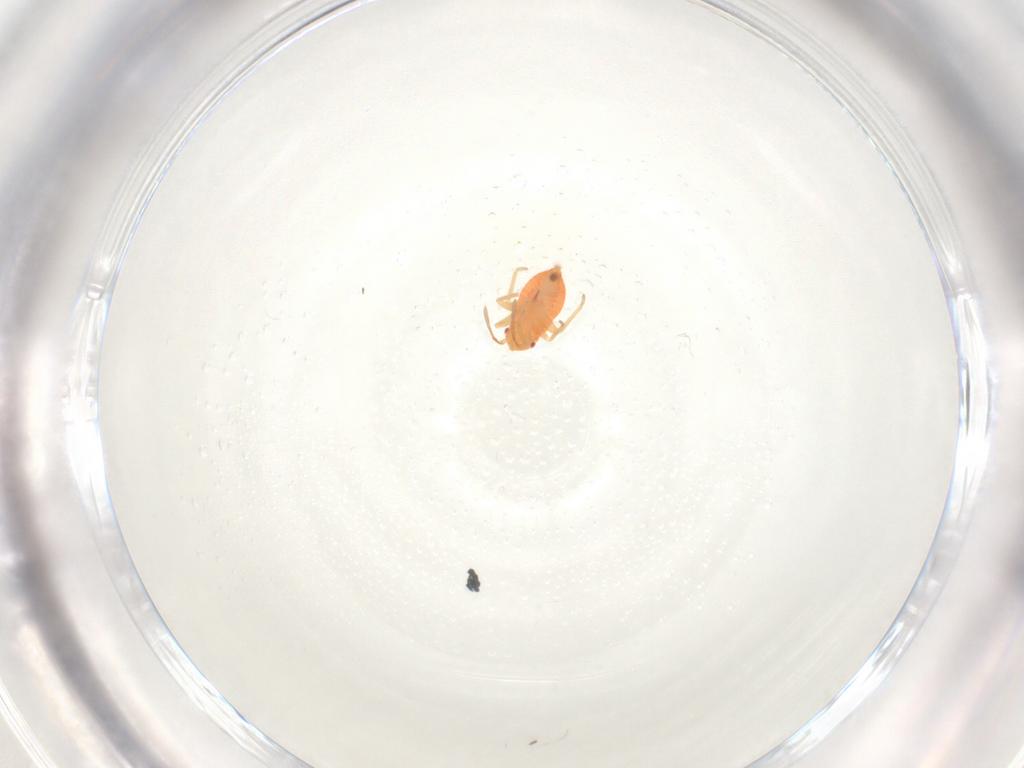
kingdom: Animalia
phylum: Arthropoda
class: Insecta
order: Hemiptera
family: Miridae
